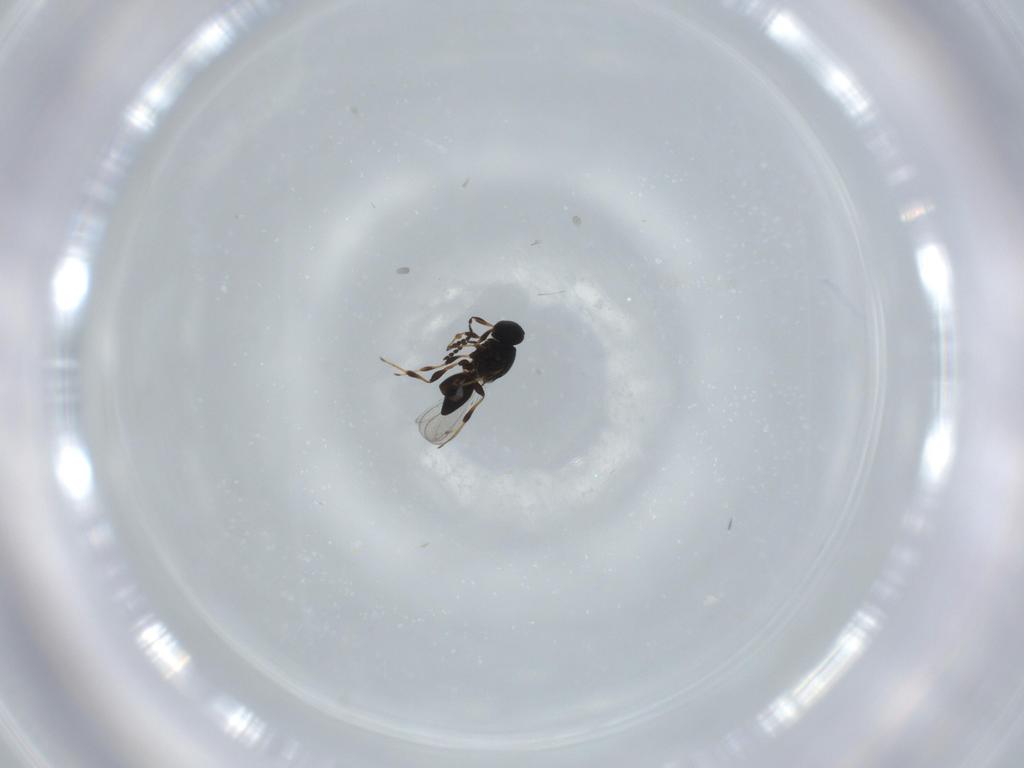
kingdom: Animalia
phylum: Arthropoda
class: Insecta
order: Hymenoptera
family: Platygastridae
